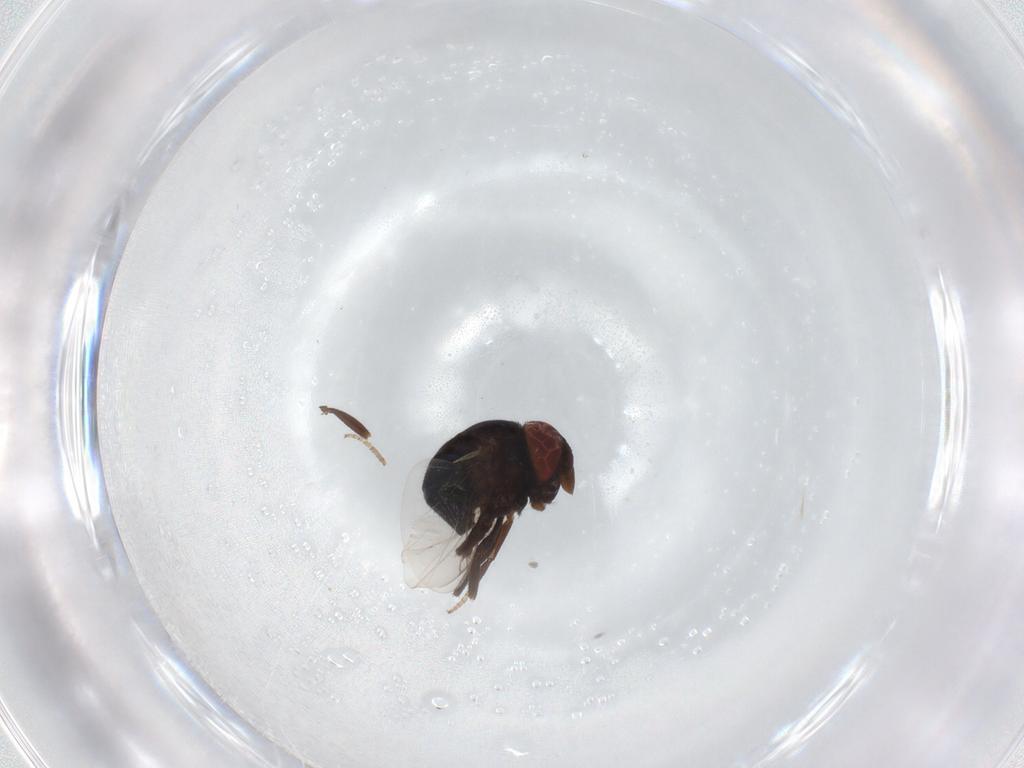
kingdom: Animalia
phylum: Arthropoda
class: Insecta
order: Diptera
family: Cryptochetidae
